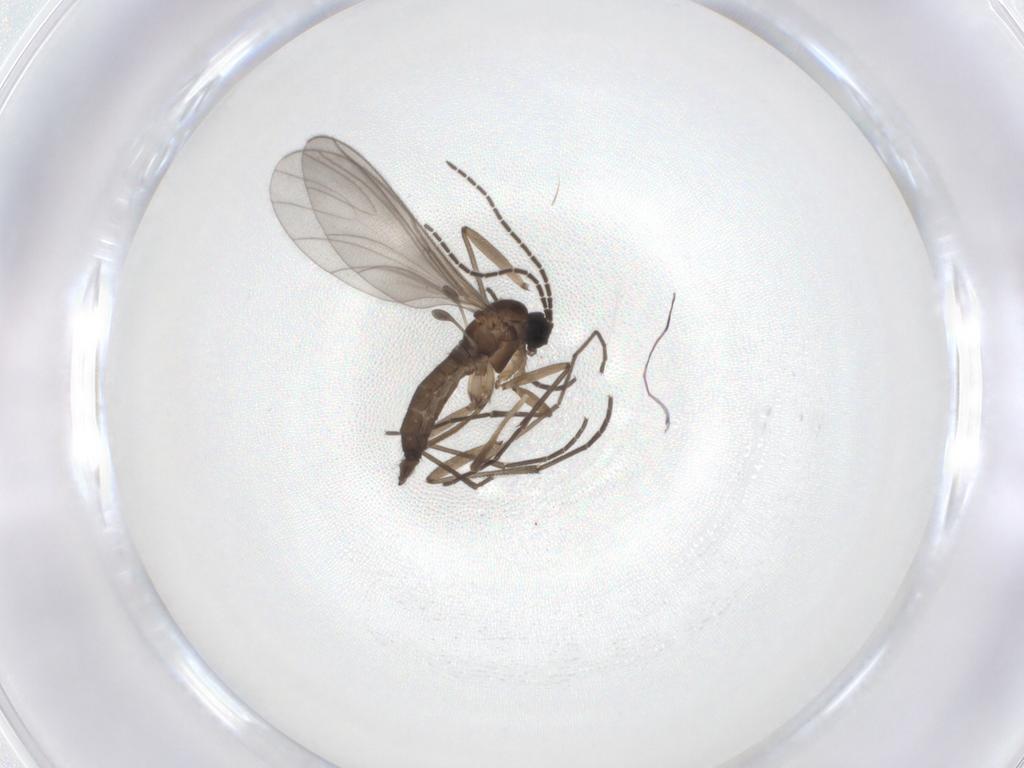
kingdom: Animalia
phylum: Arthropoda
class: Insecta
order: Diptera
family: Sciaridae
